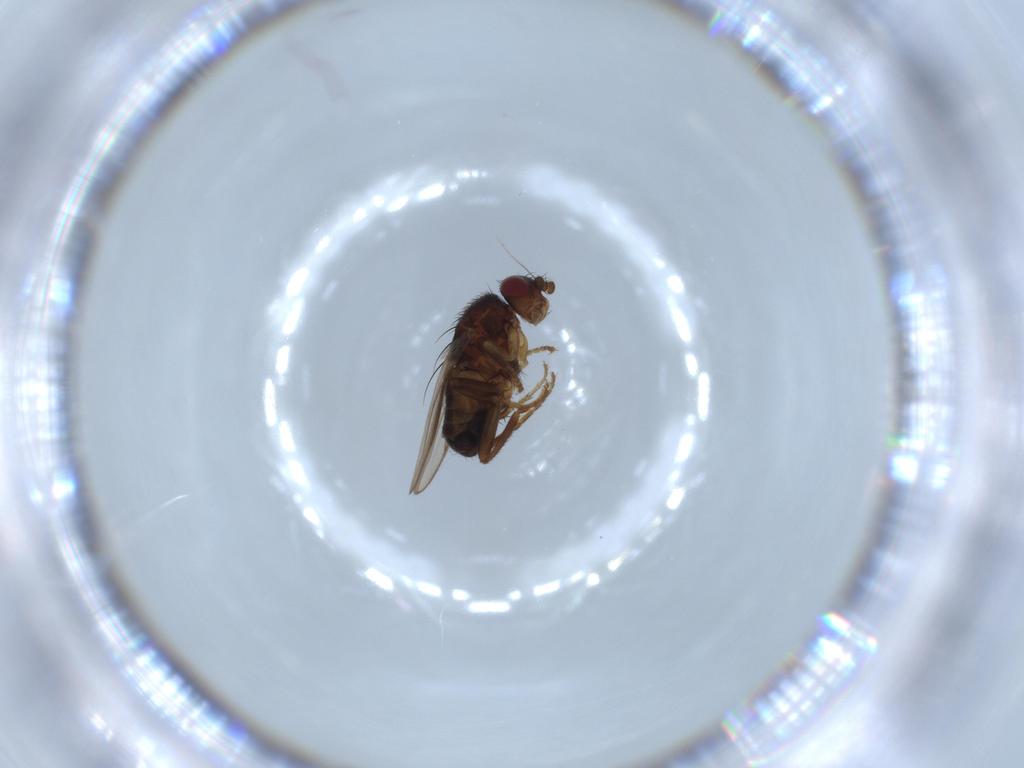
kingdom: Animalia
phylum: Arthropoda
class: Insecta
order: Diptera
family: Sphaeroceridae
